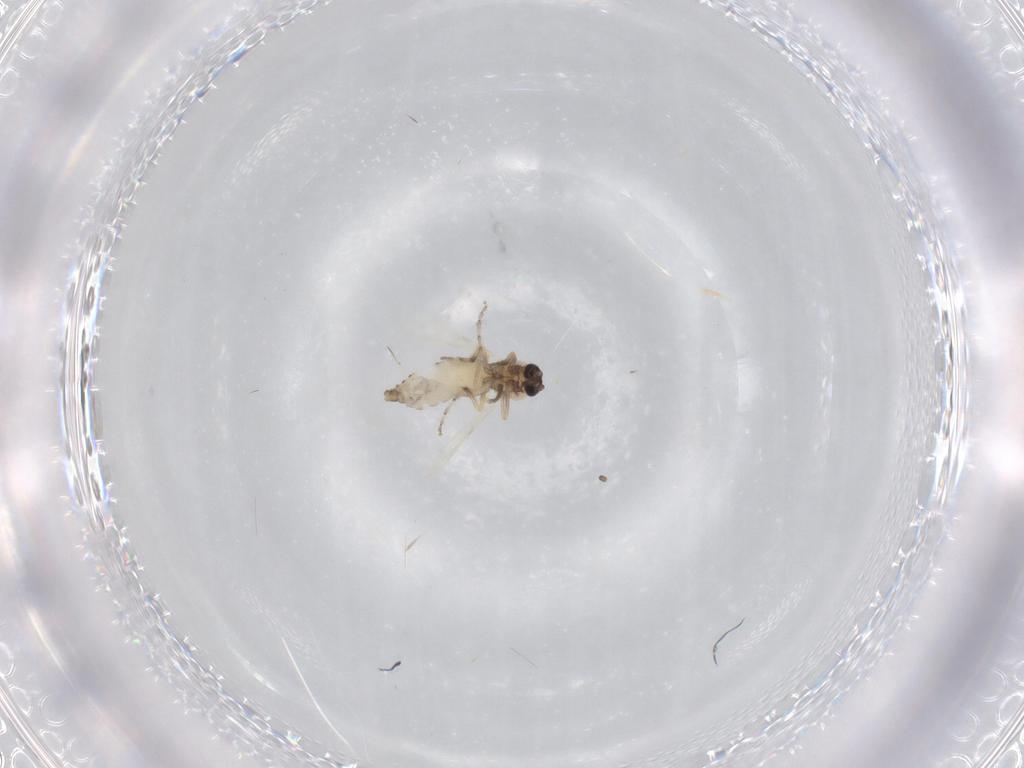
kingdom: Animalia
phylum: Arthropoda
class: Insecta
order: Diptera
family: Ceratopogonidae
